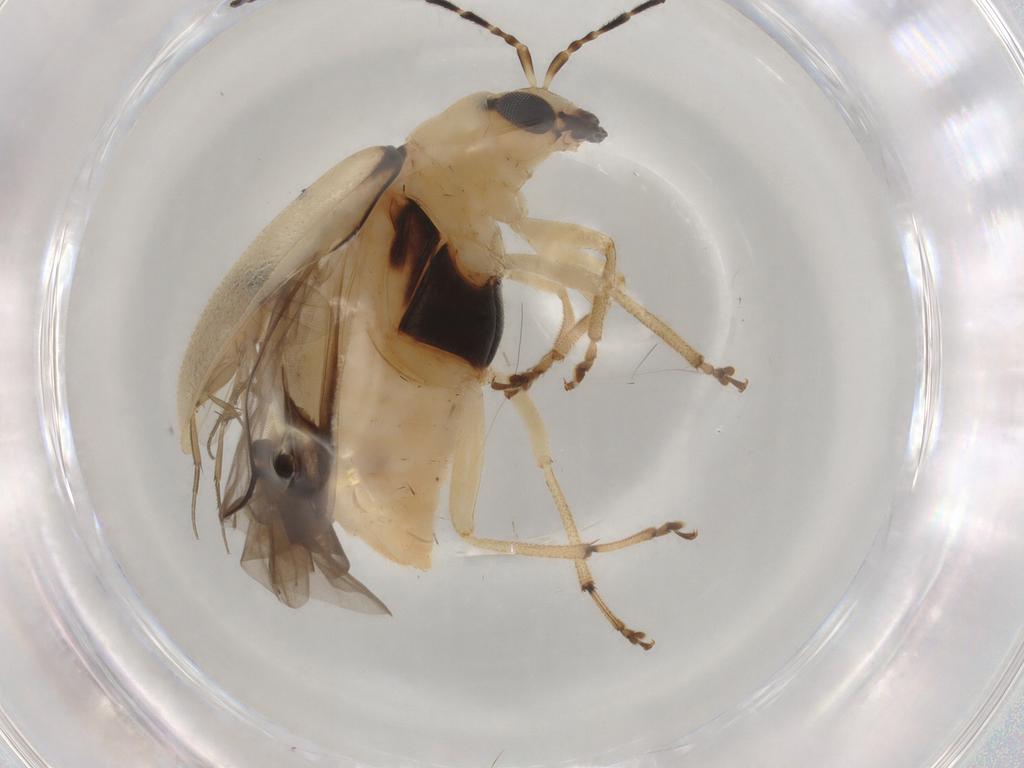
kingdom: Animalia
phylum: Arthropoda
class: Insecta
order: Coleoptera
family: Chrysomelidae
